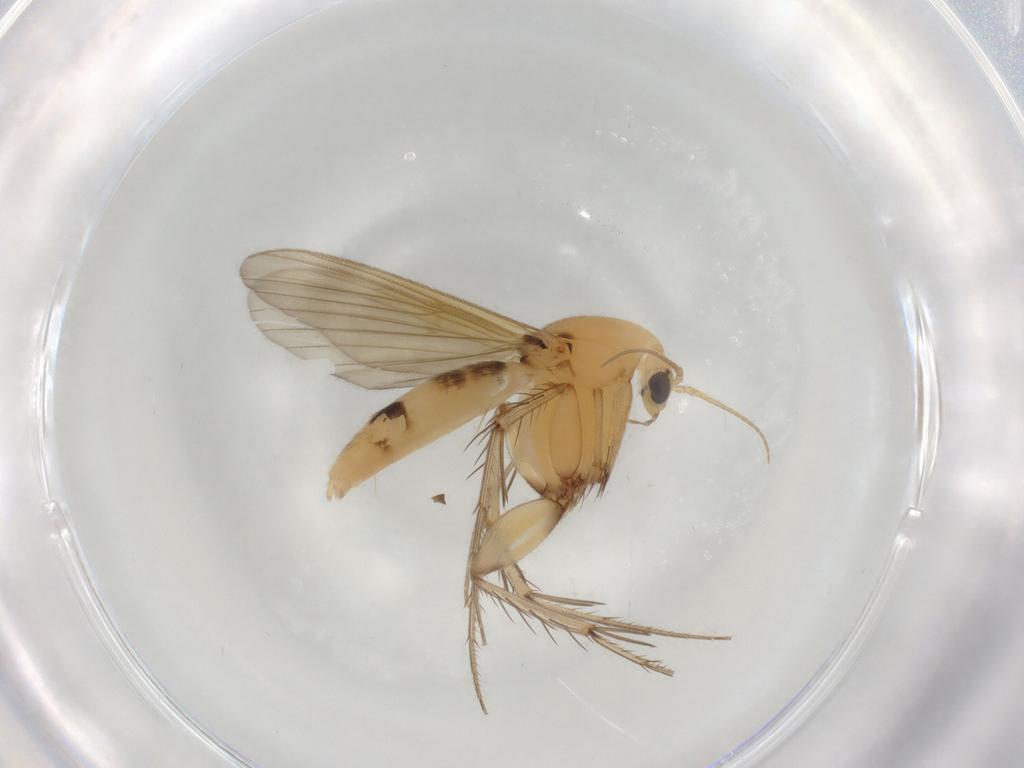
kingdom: Animalia
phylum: Arthropoda
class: Insecta
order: Diptera
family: Mycetophilidae
